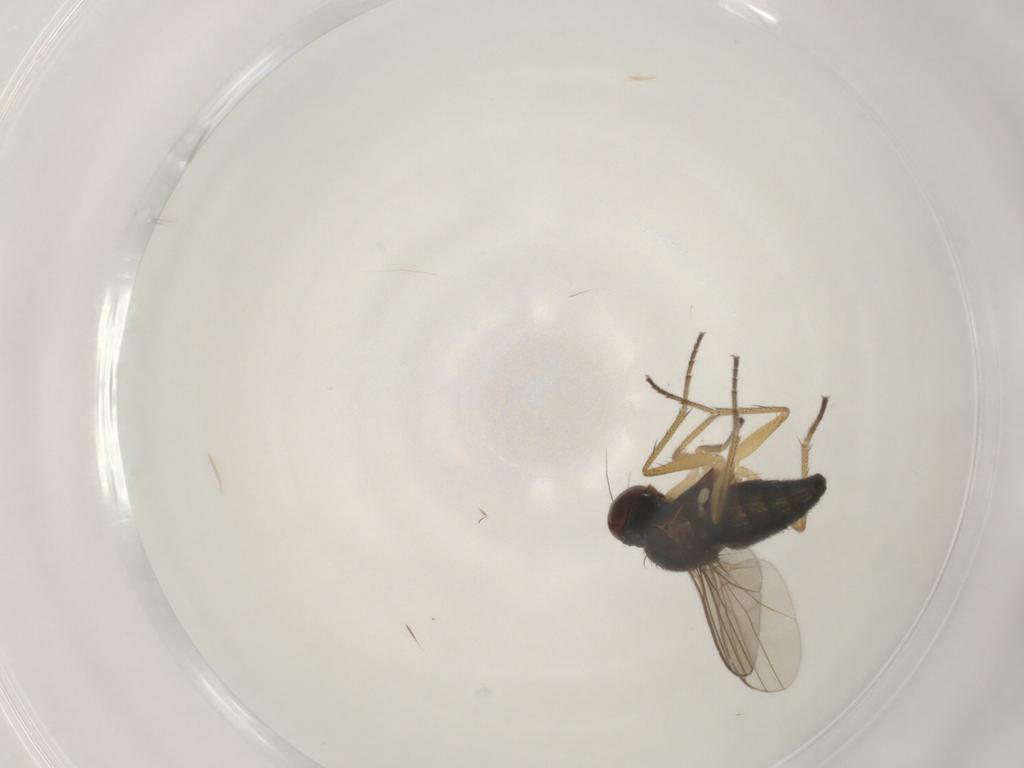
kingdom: Animalia
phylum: Arthropoda
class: Insecta
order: Diptera
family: Dolichopodidae
